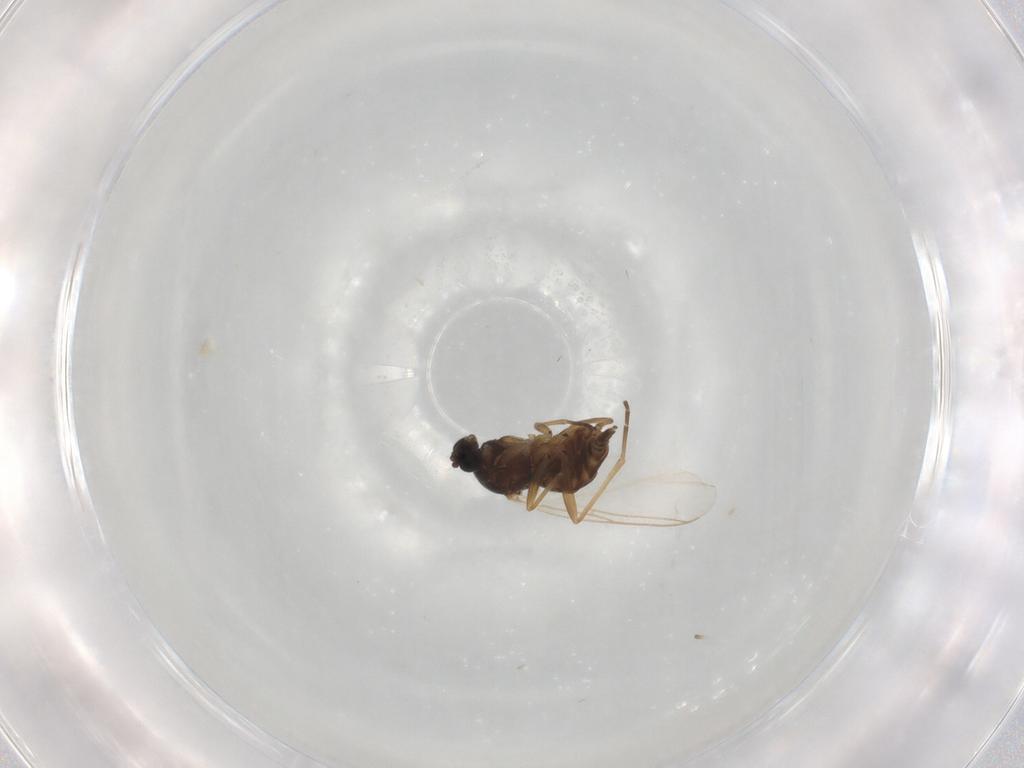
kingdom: Animalia
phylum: Arthropoda
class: Insecta
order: Diptera
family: Sciaridae
